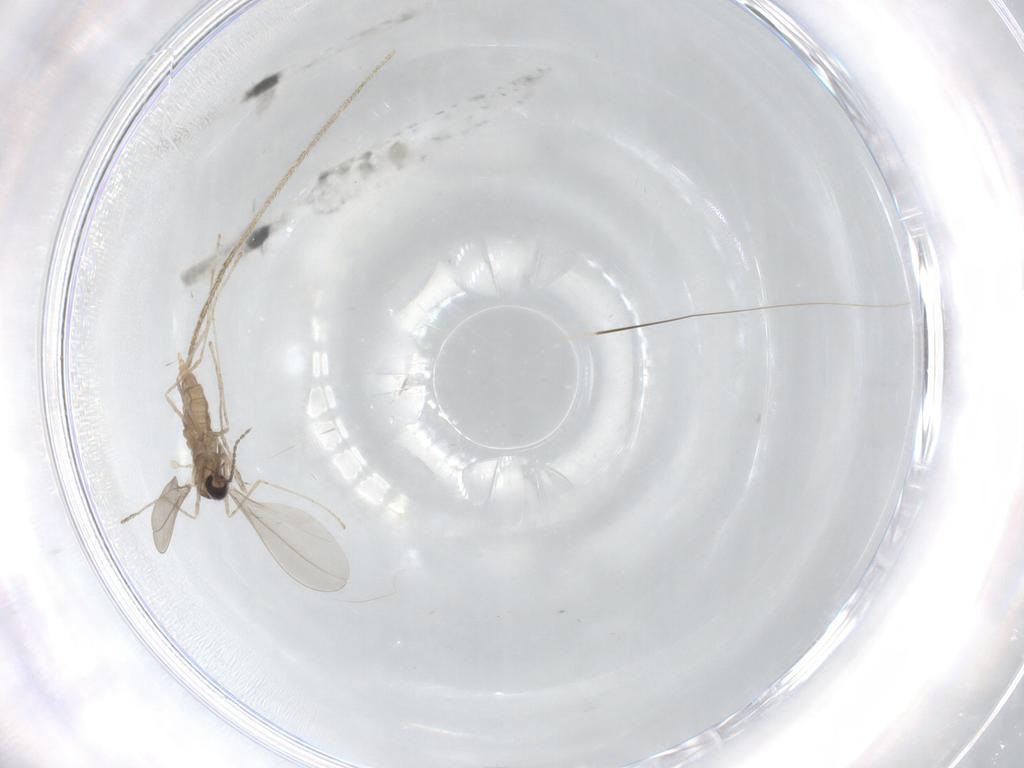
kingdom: Animalia
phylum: Arthropoda
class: Insecta
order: Diptera
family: Cecidomyiidae
